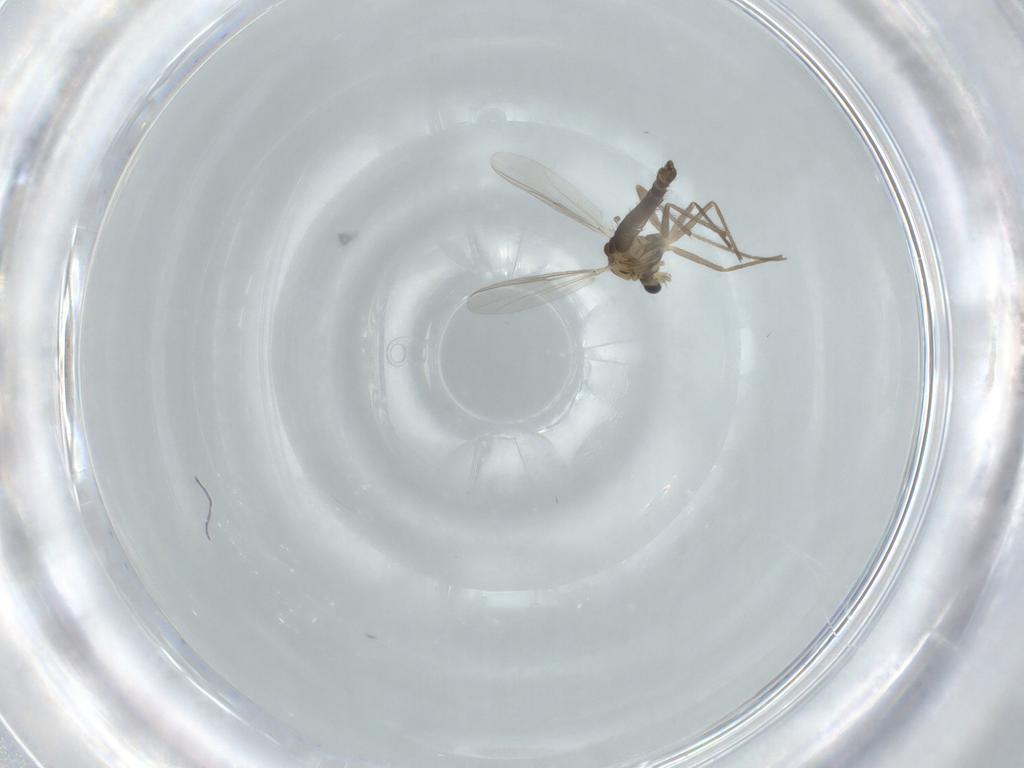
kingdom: Animalia
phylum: Arthropoda
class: Insecta
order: Diptera
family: Chironomidae
